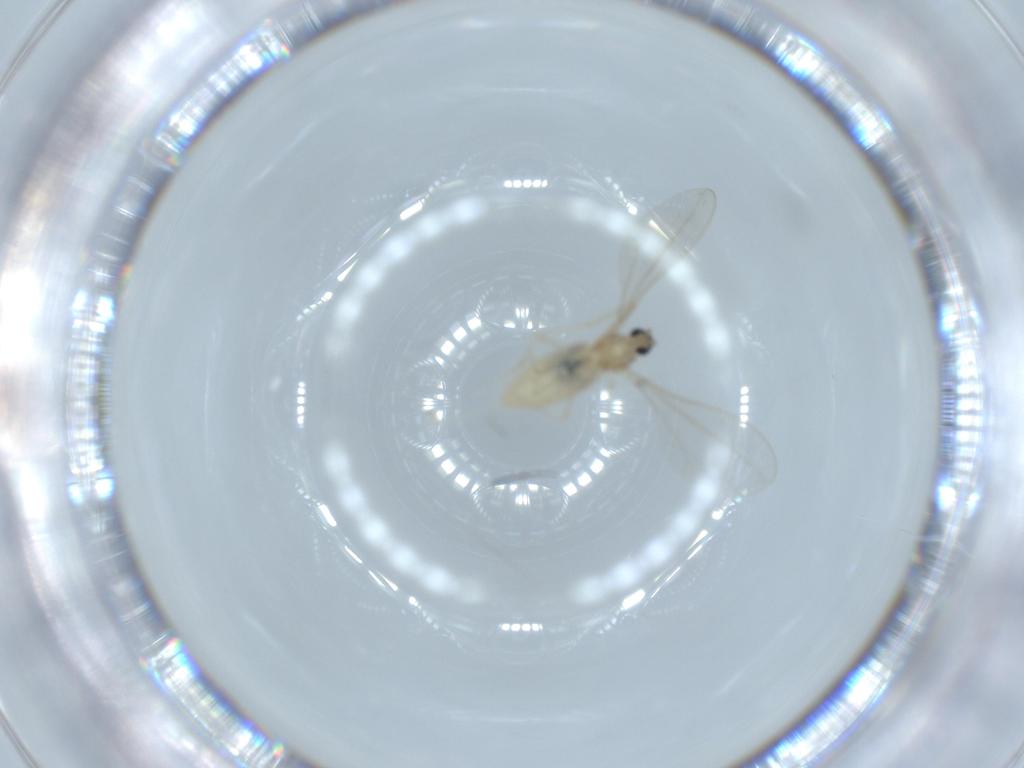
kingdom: Animalia
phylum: Arthropoda
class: Insecta
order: Diptera
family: Cecidomyiidae
